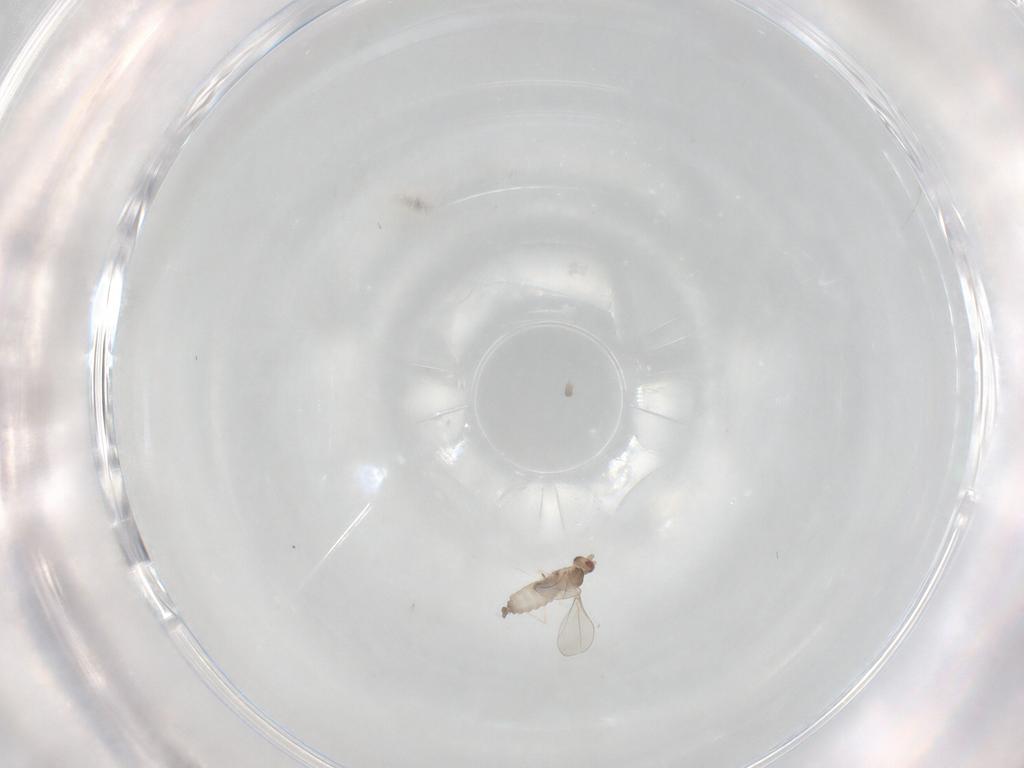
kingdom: Animalia
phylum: Arthropoda
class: Insecta
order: Diptera
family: Cecidomyiidae
